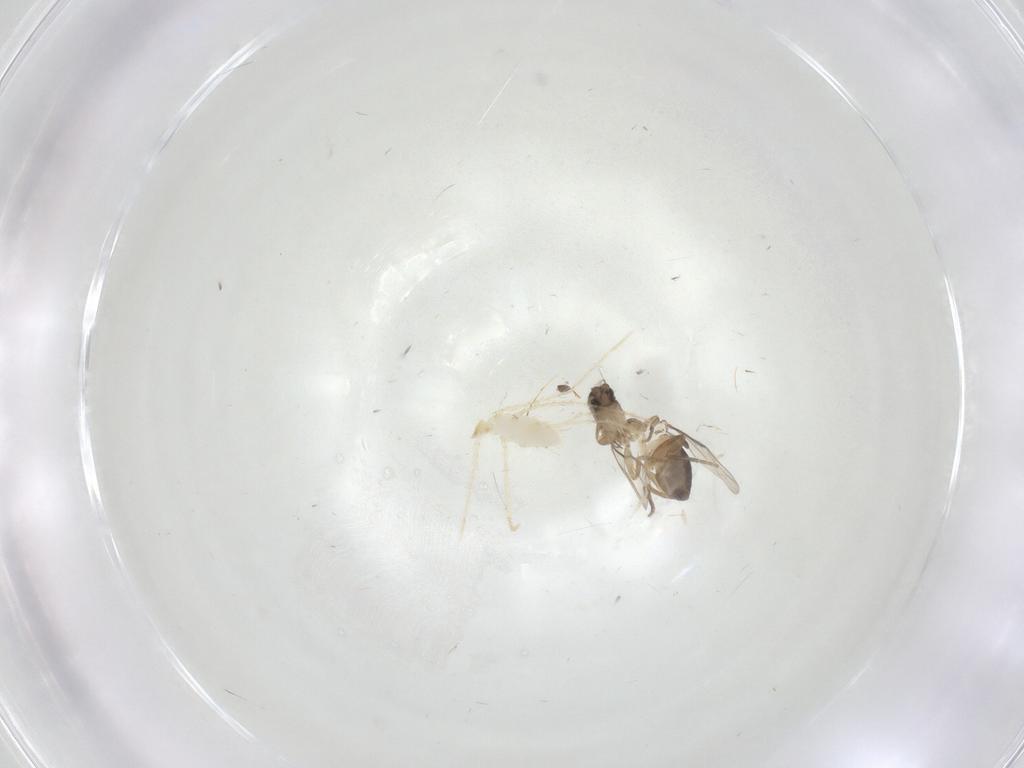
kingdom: Animalia
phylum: Arthropoda
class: Insecta
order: Diptera
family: Phoridae
